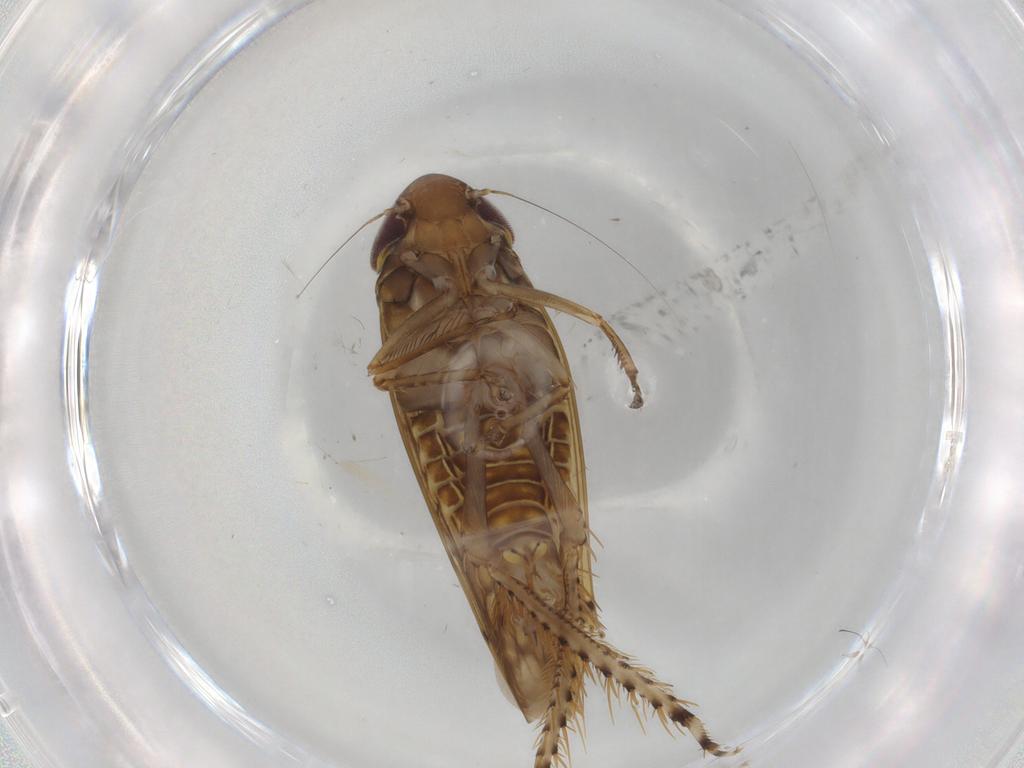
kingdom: Animalia
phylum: Arthropoda
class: Insecta
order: Hemiptera
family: Cicadellidae
